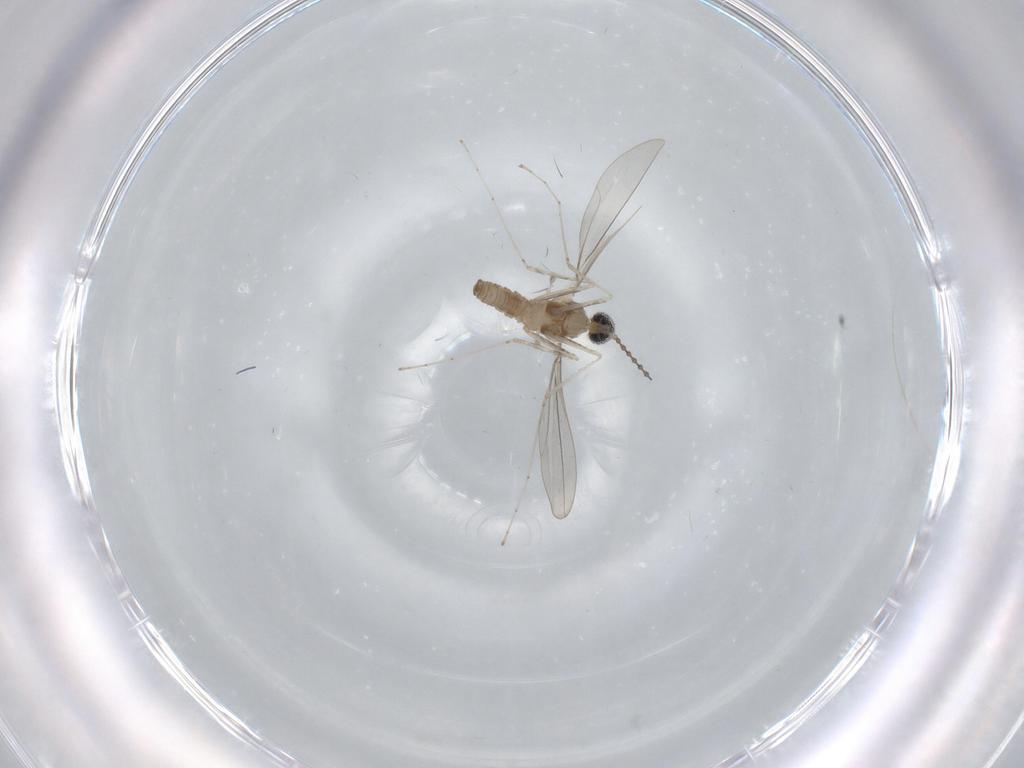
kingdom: Animalia
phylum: Arthropoda
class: Insecta
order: Diptera
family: Cecidomyiidae
